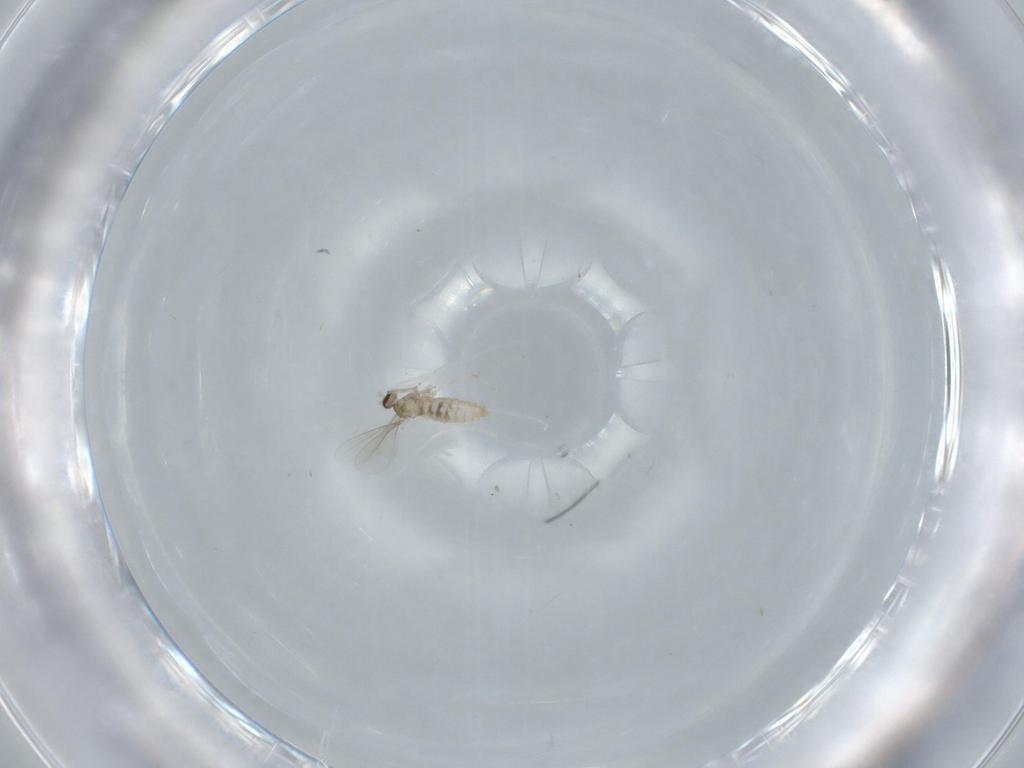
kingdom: Animalia
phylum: Arthropoda
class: Insecta
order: Diptera
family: Cecidomyiidae
